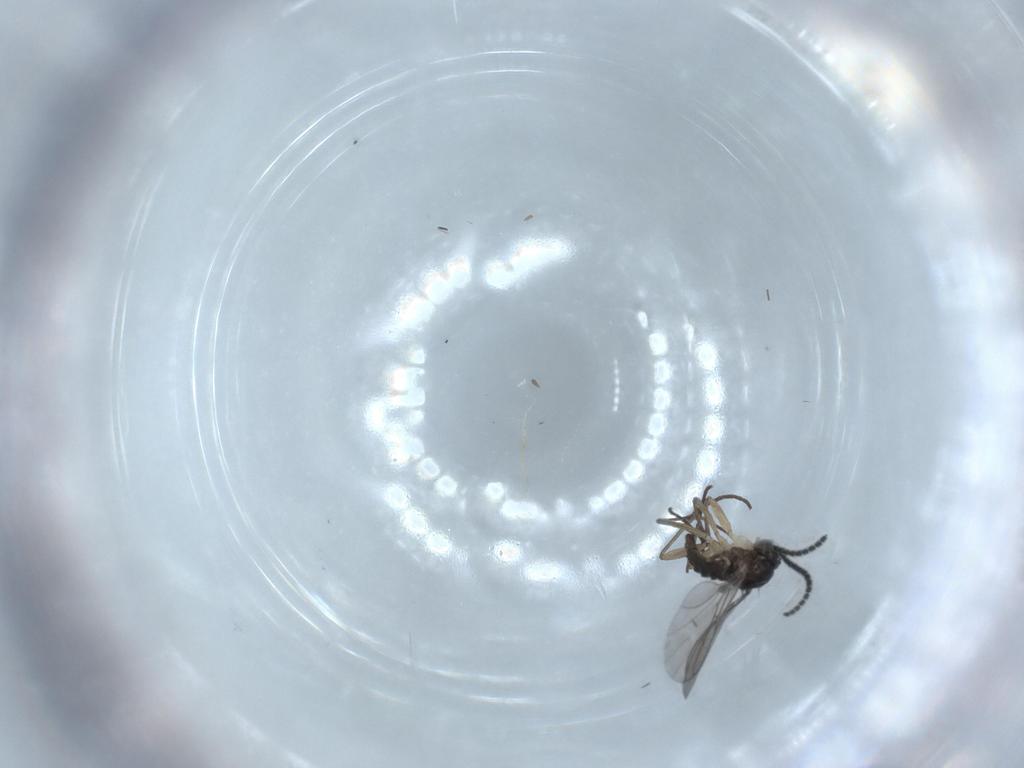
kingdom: Animalia
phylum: Arthropoda
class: Insecta
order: Diptera
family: Sciaridae
